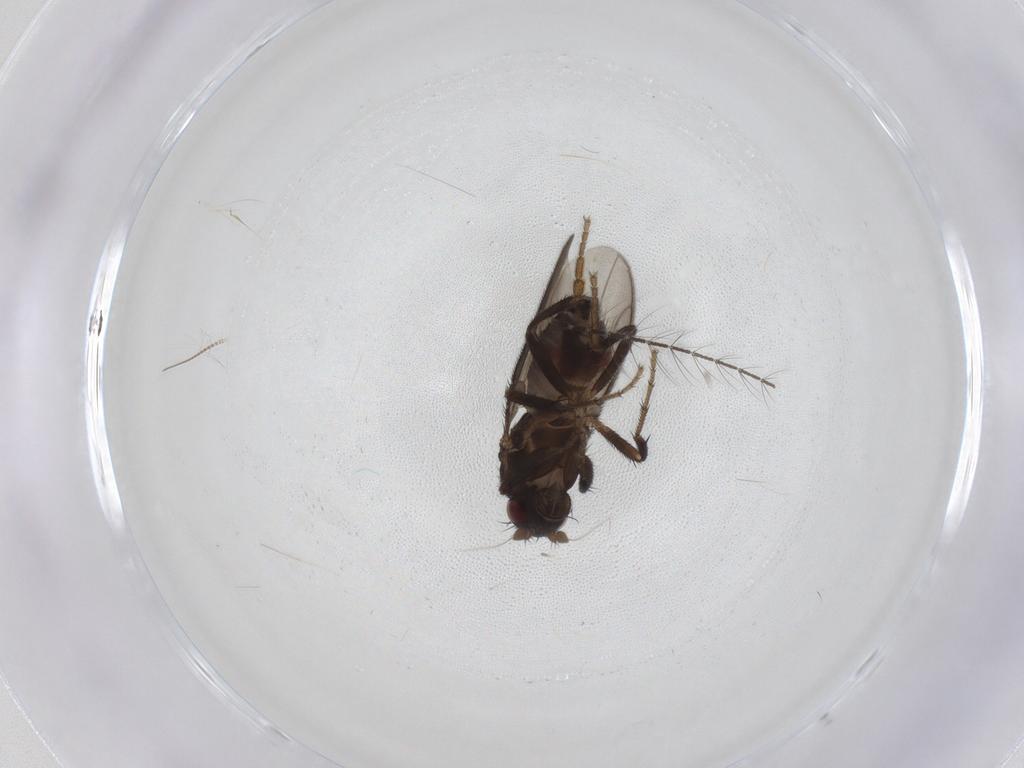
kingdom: Animalia
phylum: Arthropoda
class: Insecta
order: Diptera
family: Sphaeroceridae
